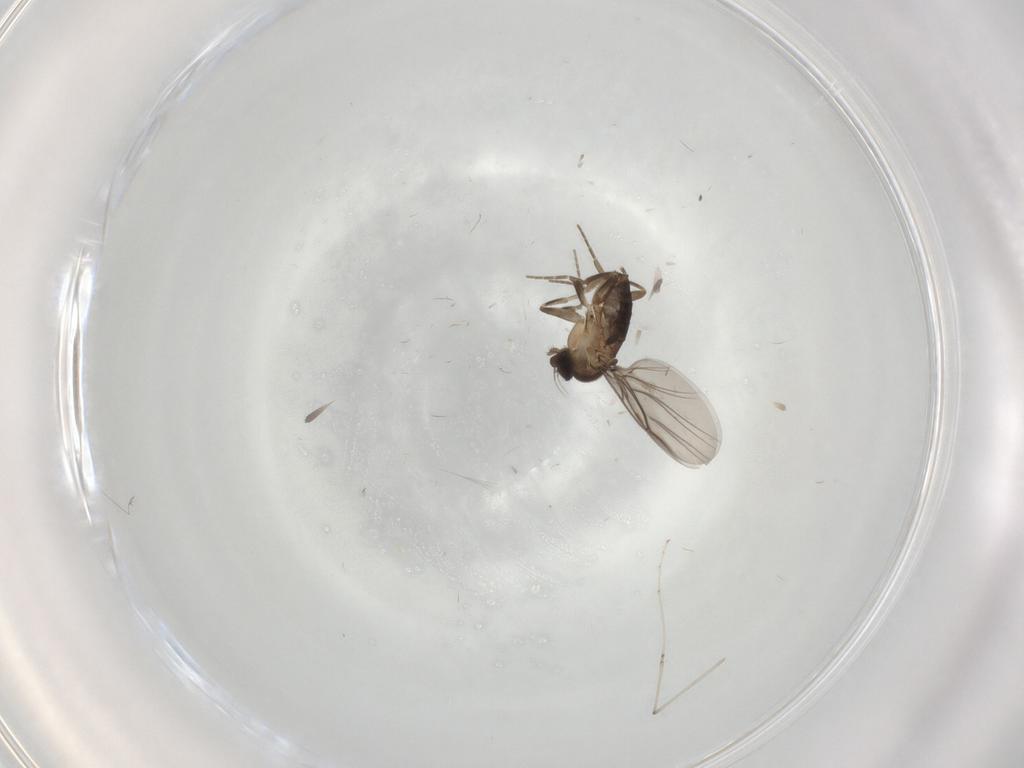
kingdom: Animalia
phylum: Arthropoda
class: Insecta
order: Diptera
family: Phoridae
